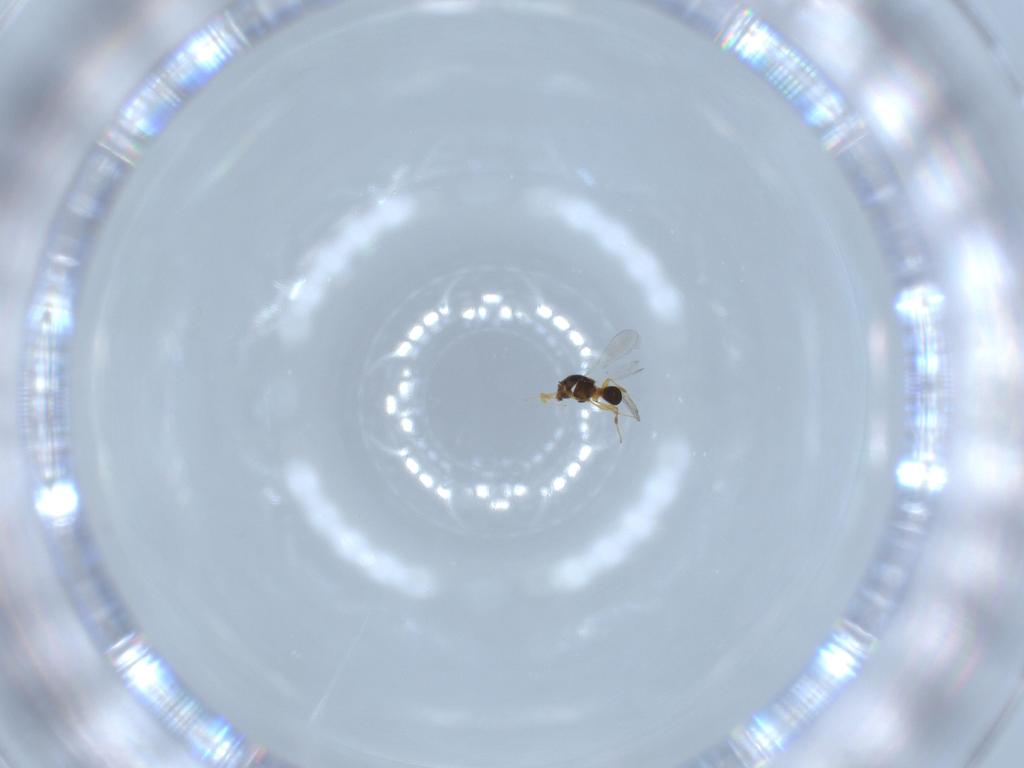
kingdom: Animalia
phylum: Arthropoda
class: Insecta
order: Hymenoptera
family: Platygastridae
